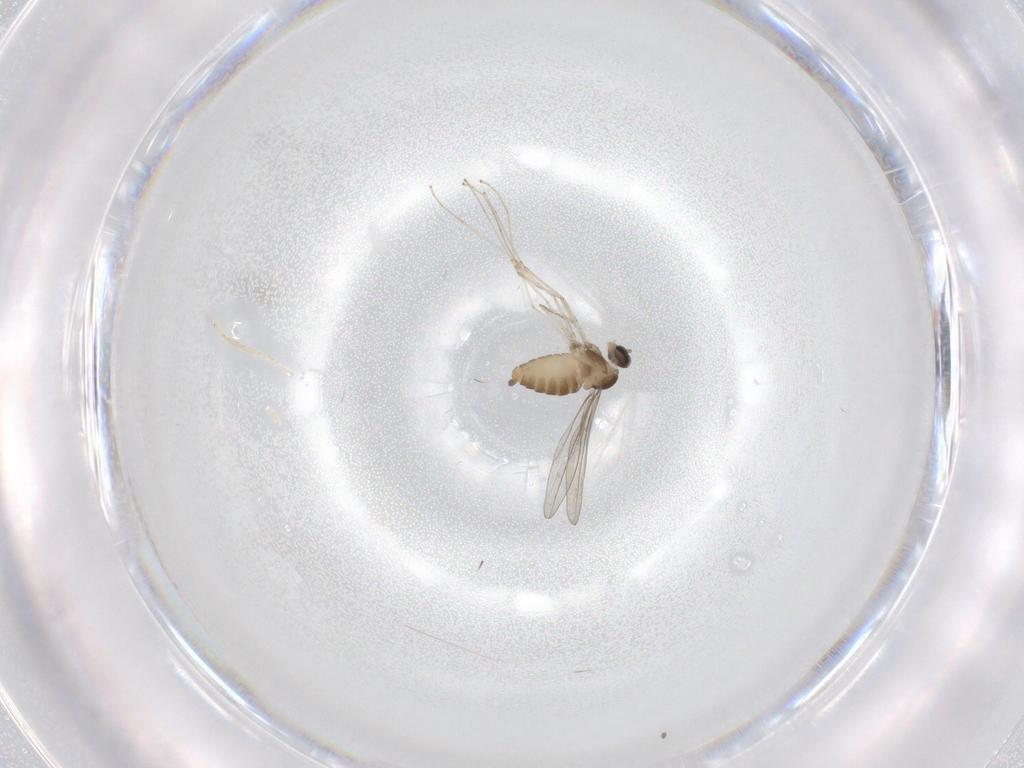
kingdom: Animalia
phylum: Arthropoda
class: Insecta
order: Diptera
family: Cecidomyiidae
